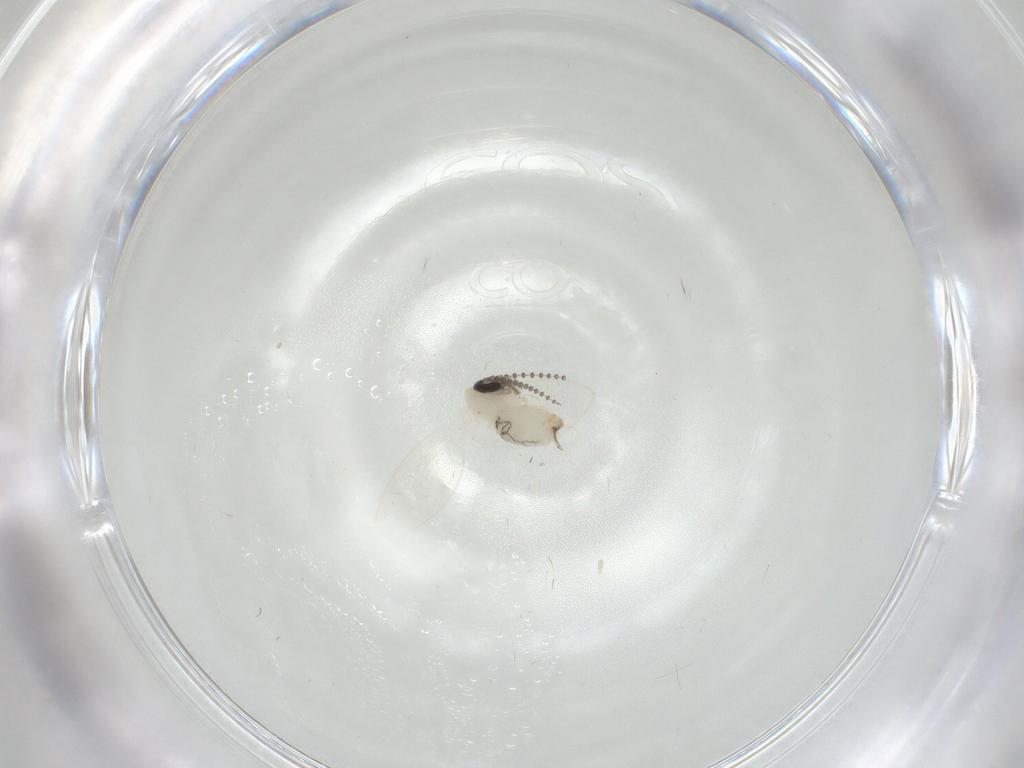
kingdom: Animalia
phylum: Arthropoda
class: Insecta
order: Diptera
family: Psychodidae
